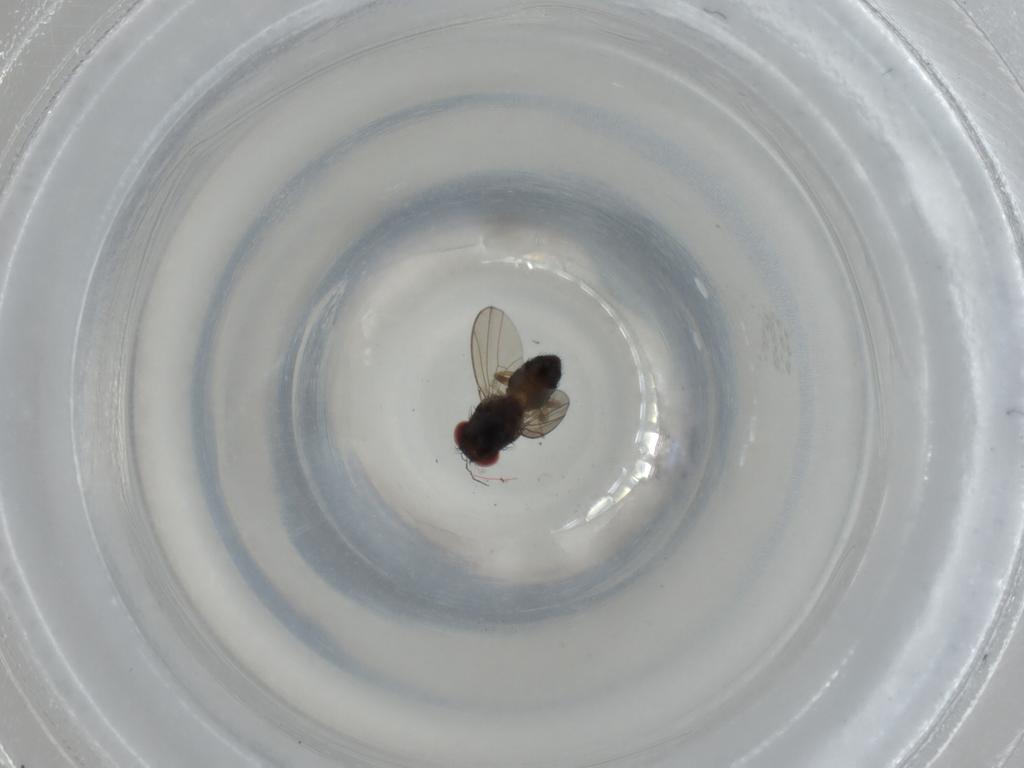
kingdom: Animalia
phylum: Arthropoda
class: Insecta
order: Diptera
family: Drosophilidae
